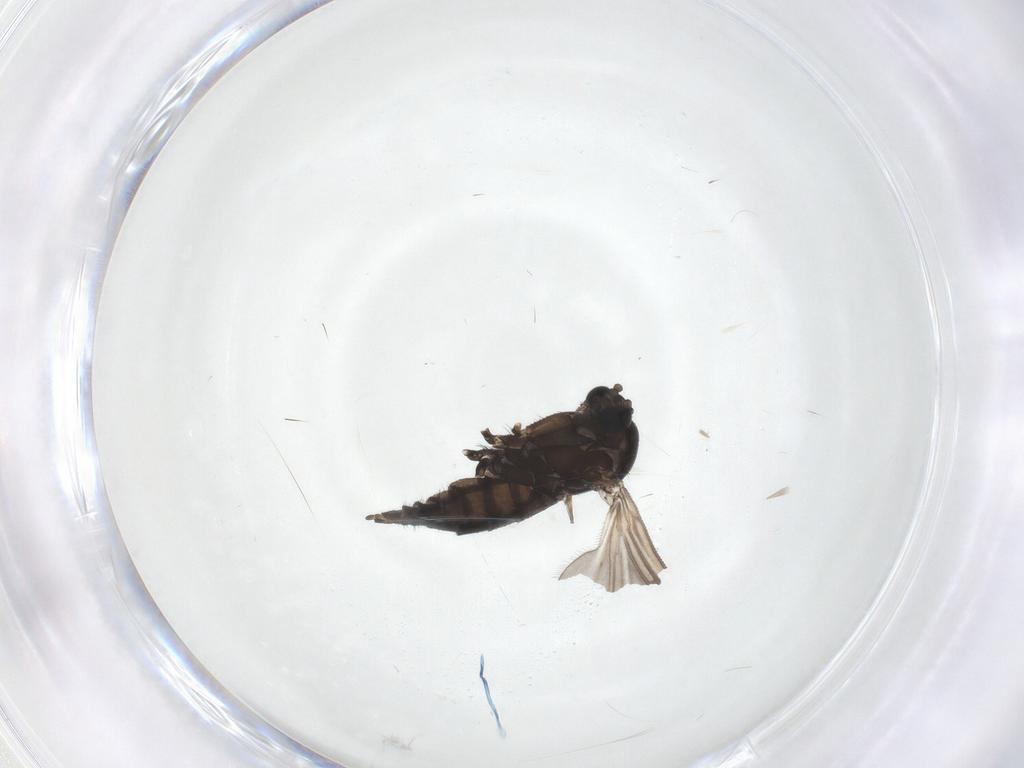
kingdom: Animalia
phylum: Arthropoda
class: Insecta
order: Diptera
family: Sciaridae
